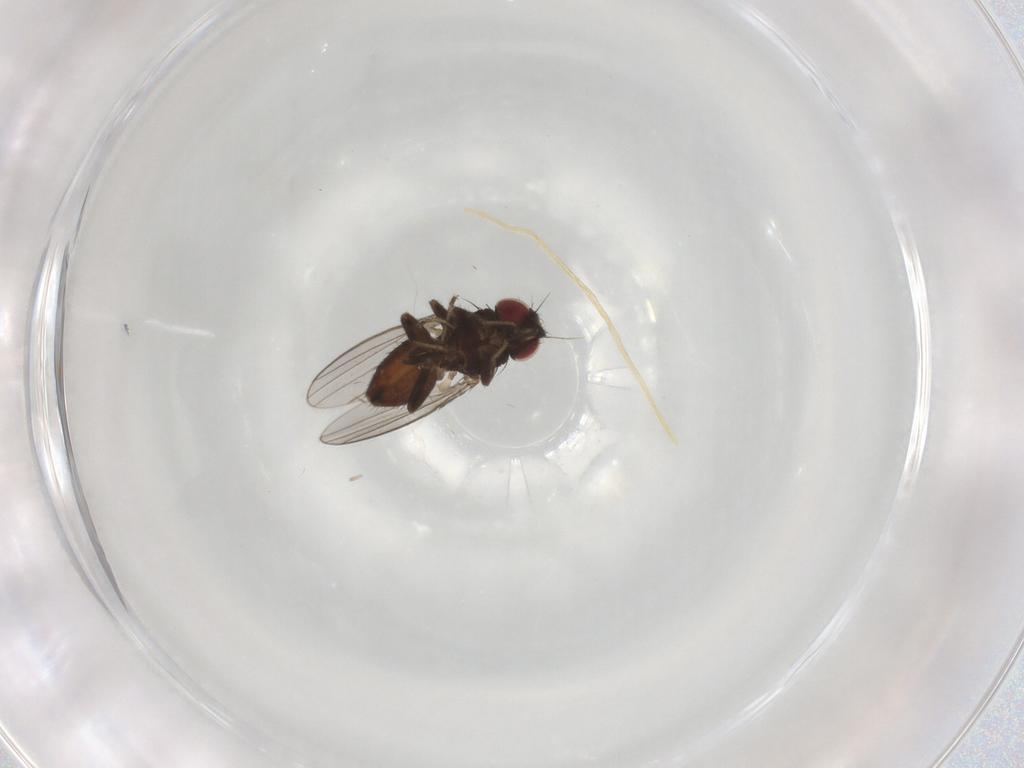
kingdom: Animalia
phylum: Arthropoda
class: Insecta
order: Diptera
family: Milichiidae
